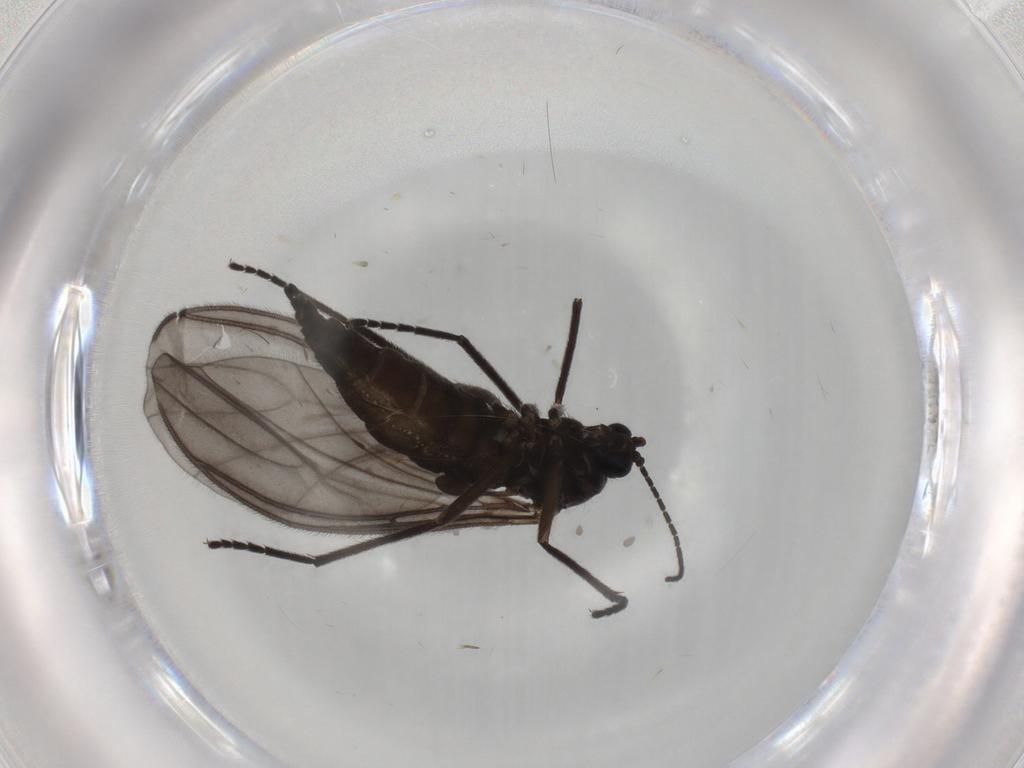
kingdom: Animalia
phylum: Arthropoda
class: Insecta
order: Diptera
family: Sciaridae
